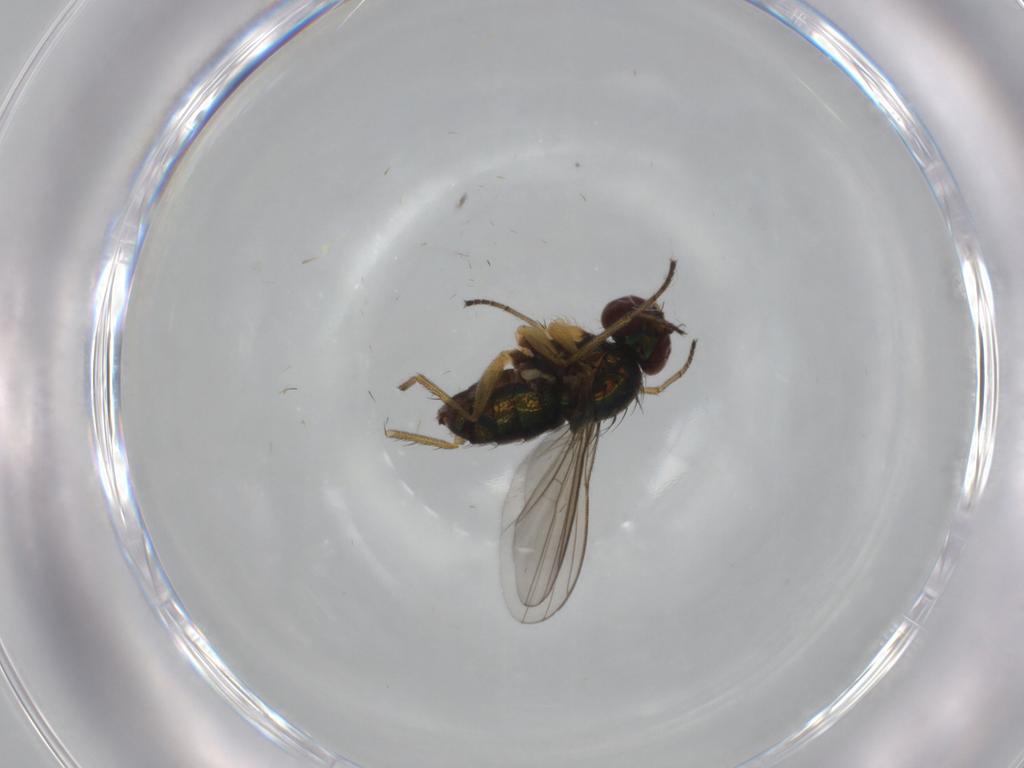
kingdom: Animalia
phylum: Arthropoda
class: Insecta
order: Diptera
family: Dolichopodidae
